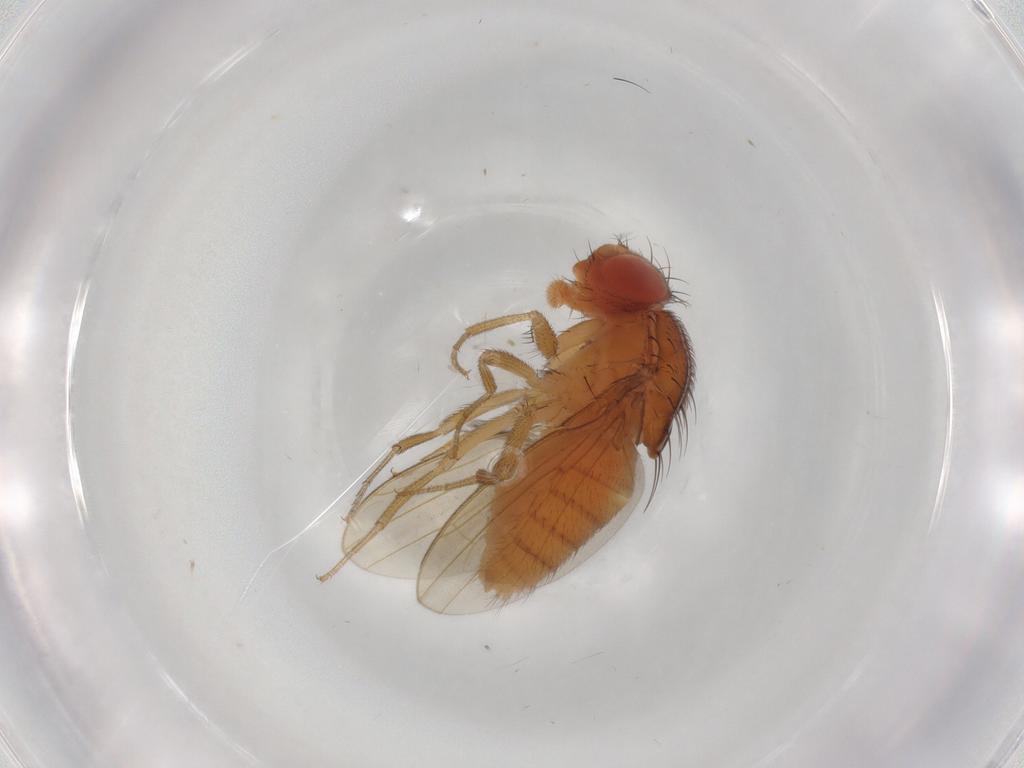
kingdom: Animalia
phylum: Arthropoda
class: Insecta
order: Diptera
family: Drosophilidae
